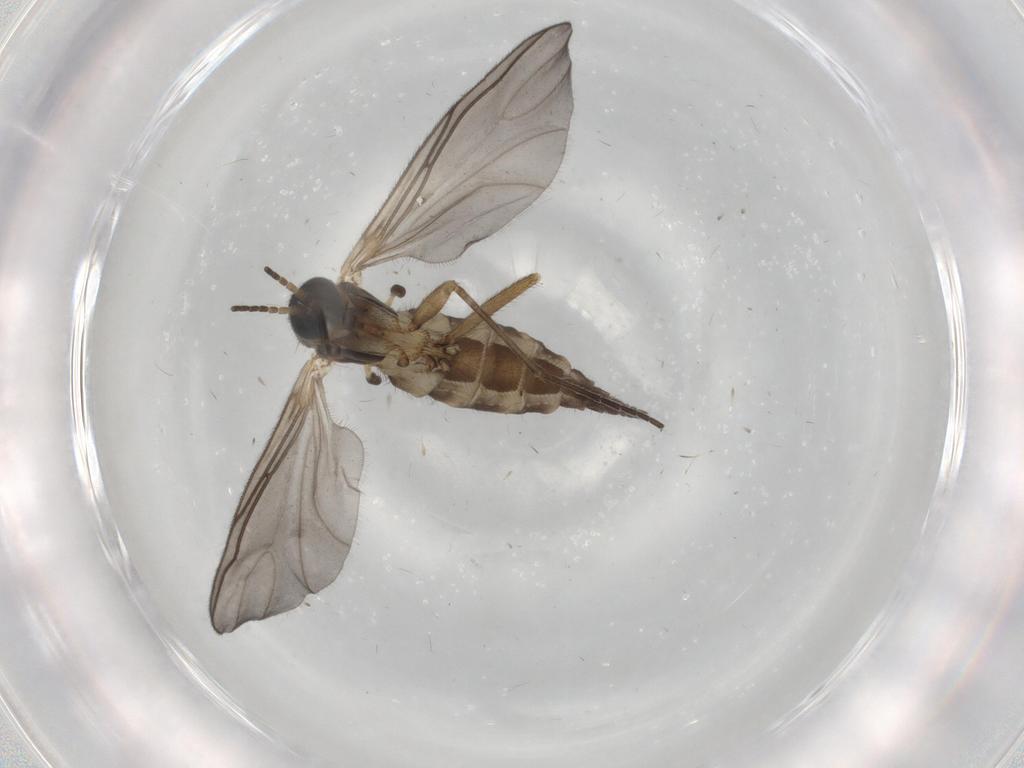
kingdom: Animalia
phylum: Arthropoda
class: Insecta
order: Diptera
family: Sciaridae
